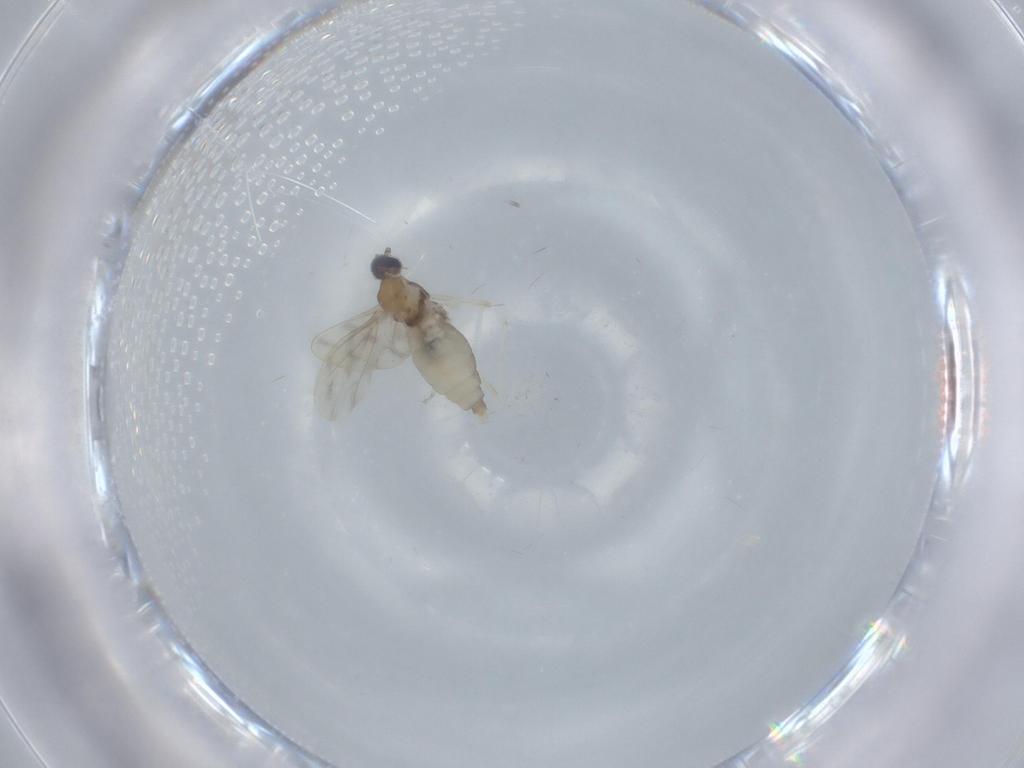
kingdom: Animalia
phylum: Arthropoda
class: Insecta
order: Diptera
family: Cecidomyiidae
